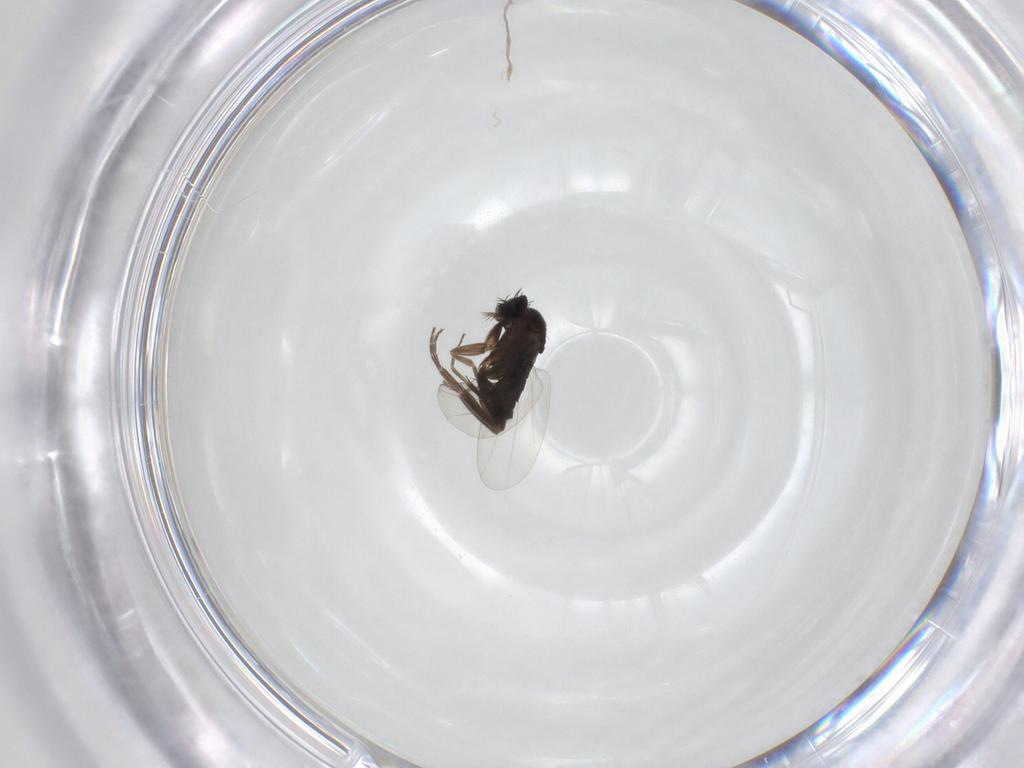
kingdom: Animalia
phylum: Arthropoda
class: Insecta
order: Diptera
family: Phoridae
